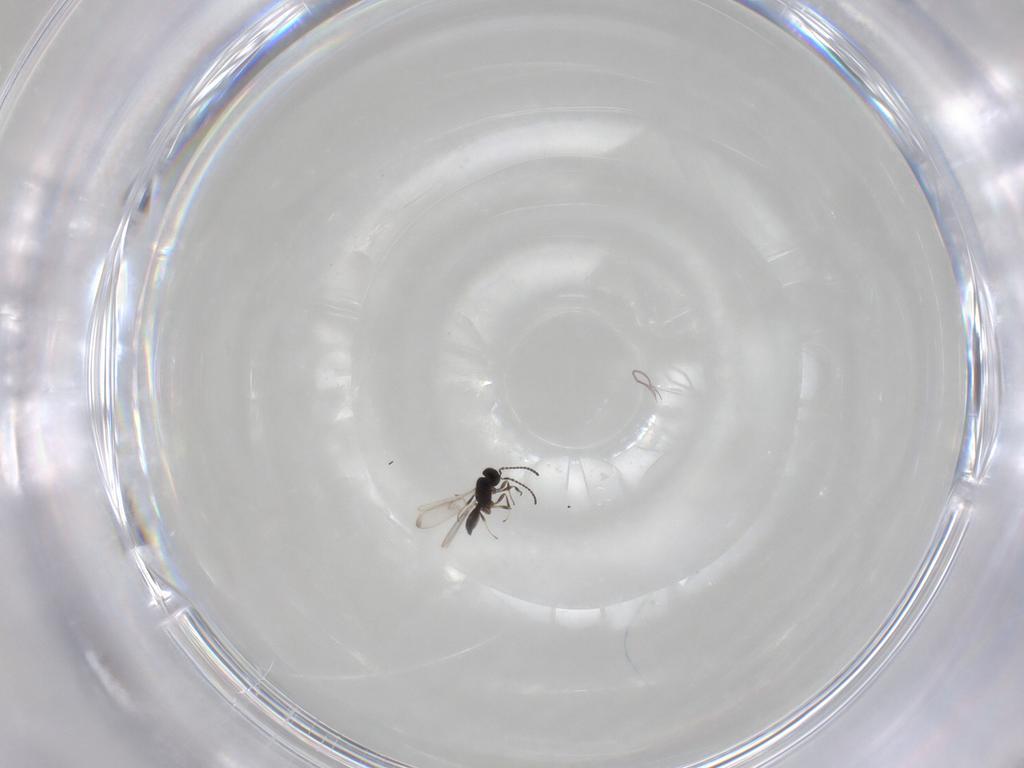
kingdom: Animalia
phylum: Arthropoda
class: Insecta
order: Hymenoptera
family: Scelionidae
